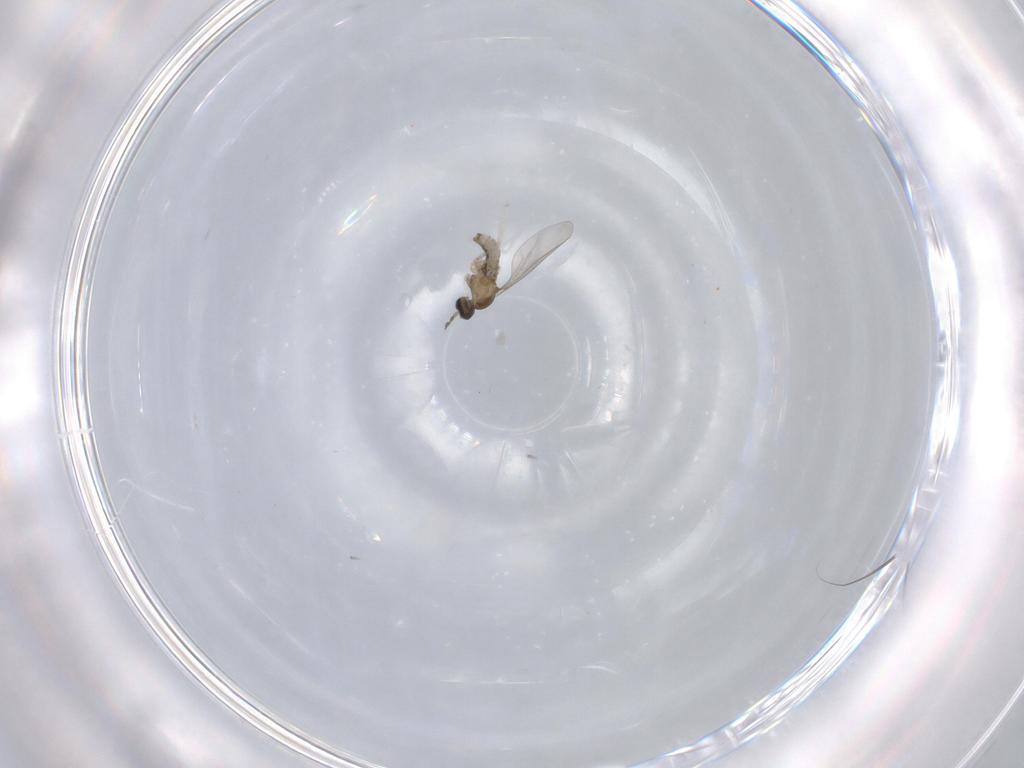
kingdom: Animalia
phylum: Arthropoda
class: Insecta
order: Diptera
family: Cecidomyiidae
